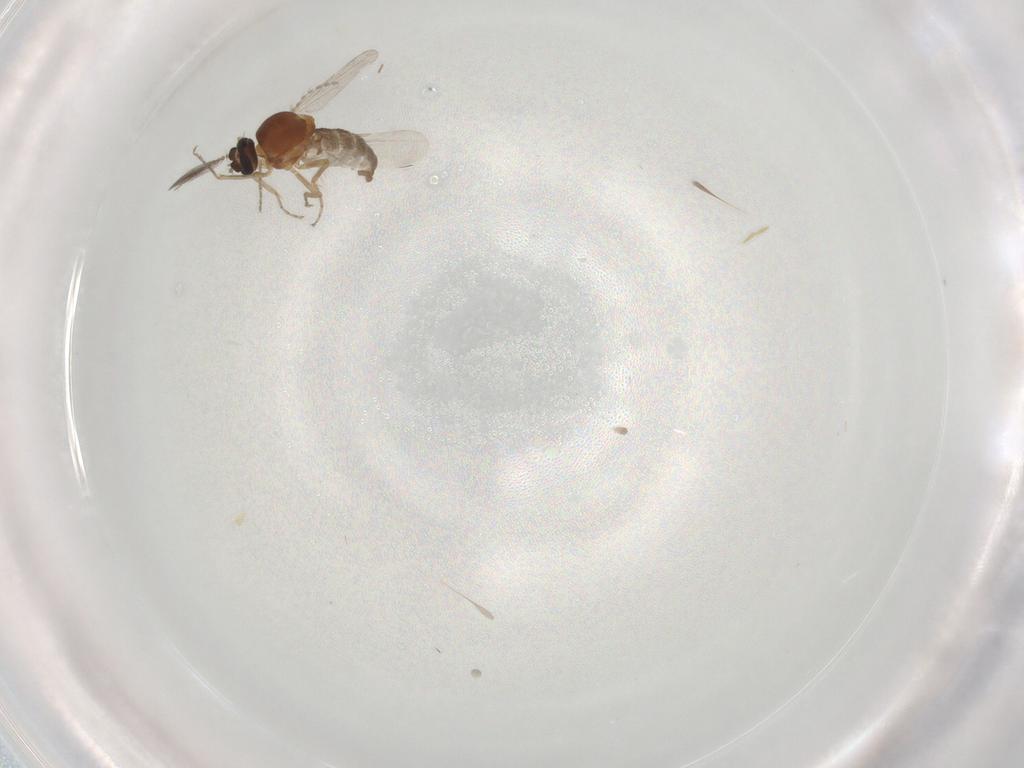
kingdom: Animalia
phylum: Arthropoda
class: Insecta
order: Diptera
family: Ceratopogonidae
